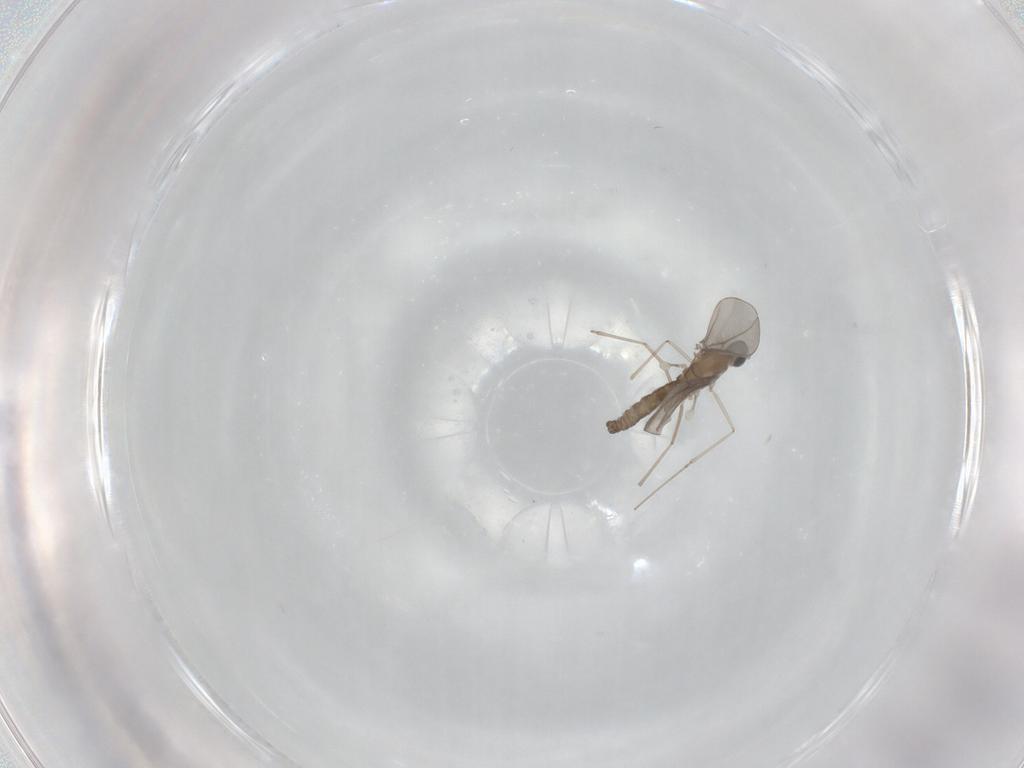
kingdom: Animalia
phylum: Arthropoda
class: Insecta
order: Diptera
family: Cecidomyiidae
